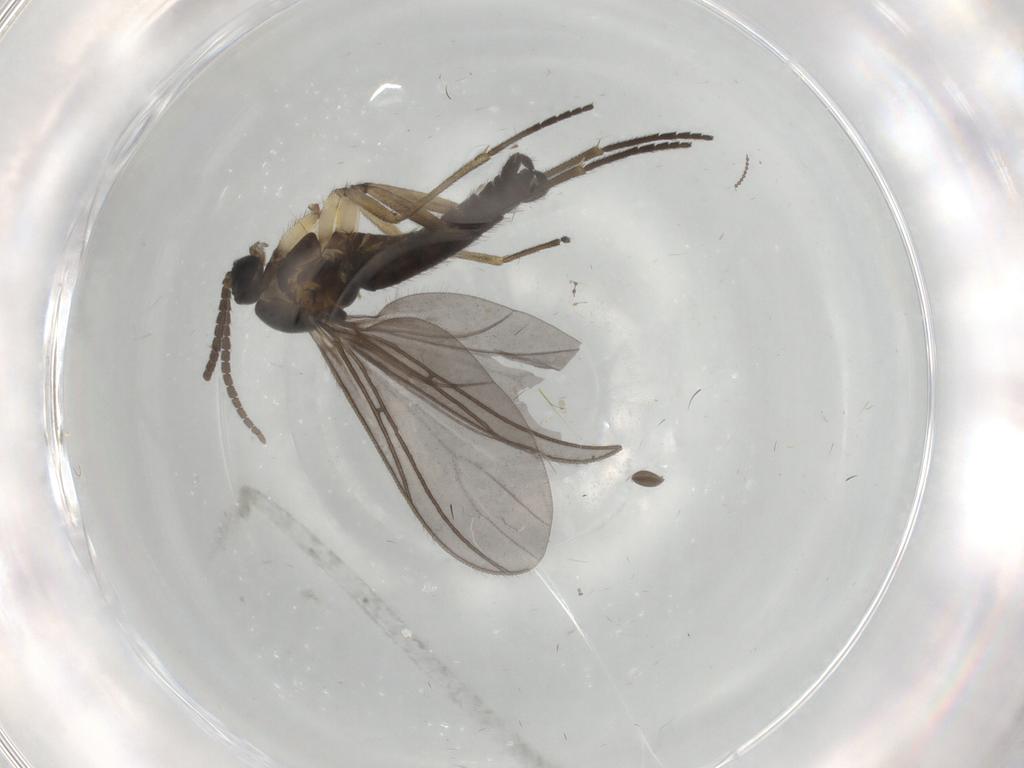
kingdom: Animalia
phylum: Arthropoda
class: Insecta
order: Diptera
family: Sciaridae
